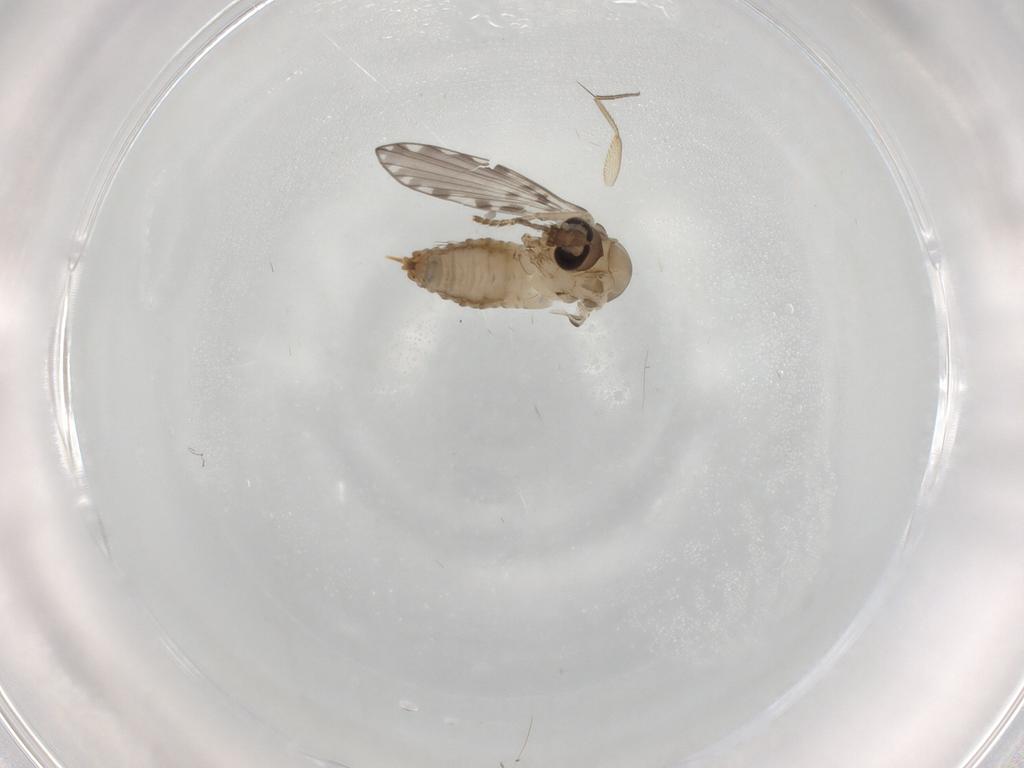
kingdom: Animalia
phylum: Arthropoda
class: Insecta
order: Diptera
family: Psychodidae
